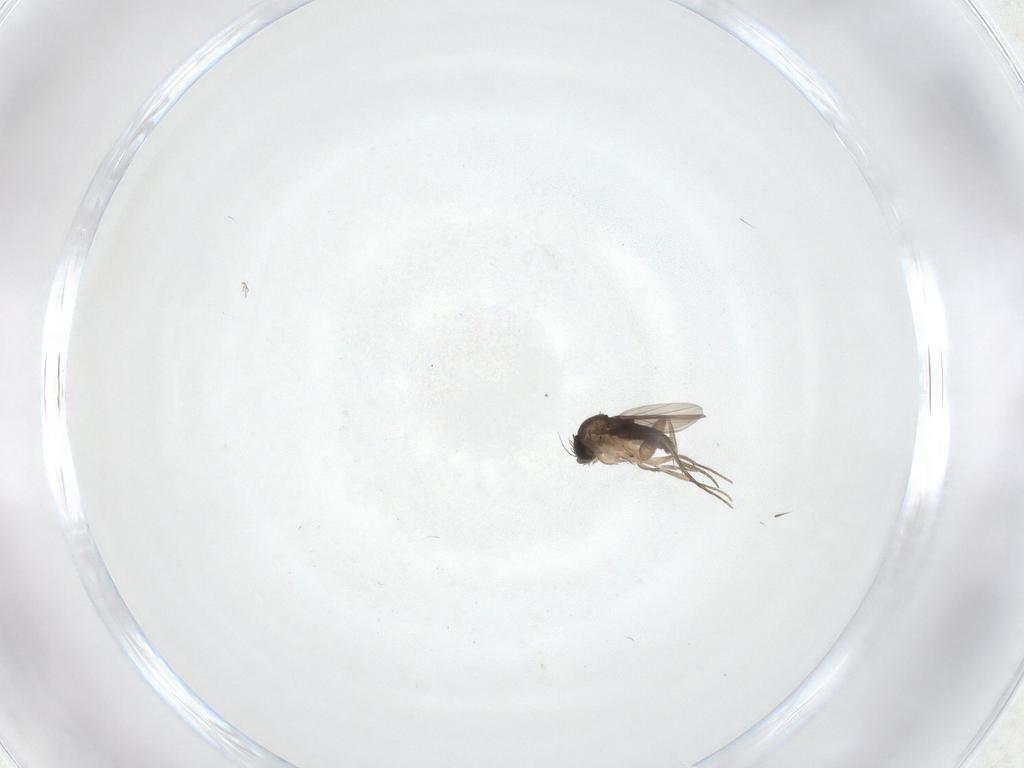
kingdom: Animalia
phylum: Arthropoda
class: Insecta
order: Diptera
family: Phoridae
